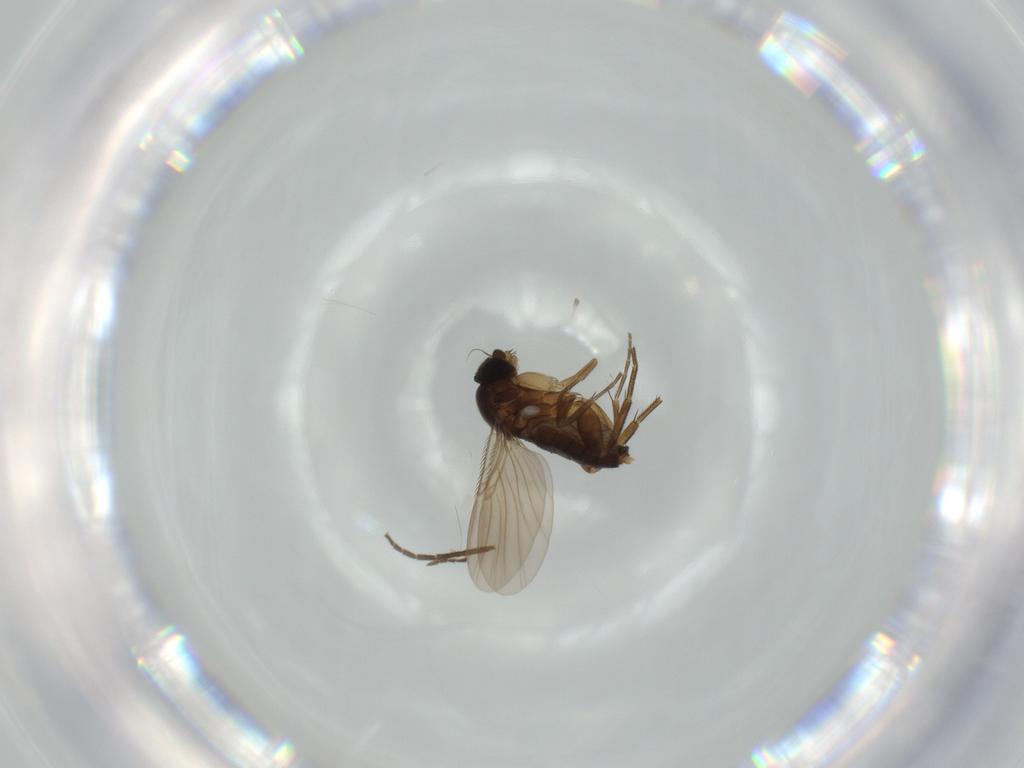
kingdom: Animalia
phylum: Arthropoda
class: Insecta
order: Diptera
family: Phoridae
